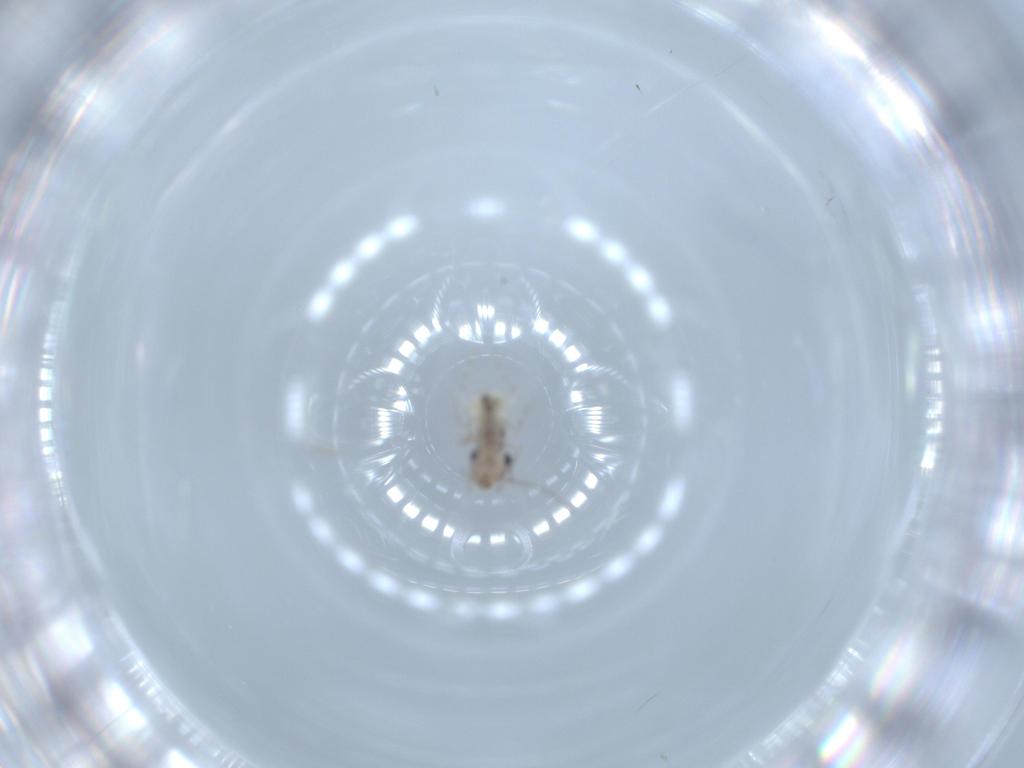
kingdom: Animalia
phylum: Arthropoda
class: Insecta
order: Psocodea
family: Lepidopsocidae
